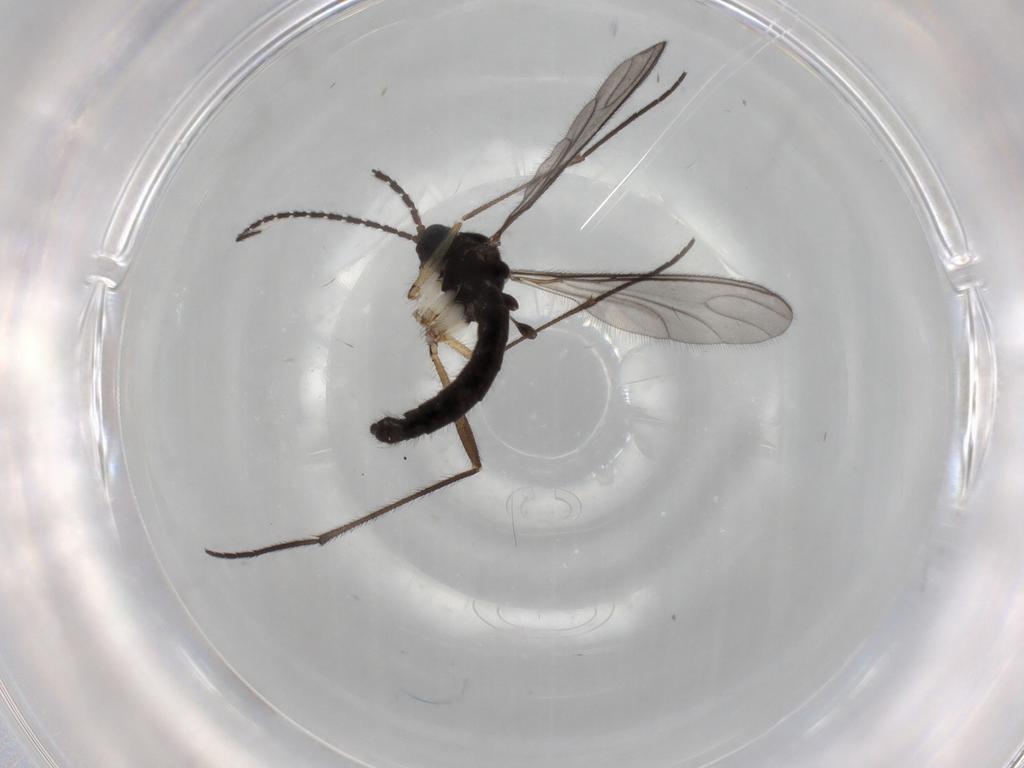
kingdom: Animalia
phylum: Arthropoda
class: Insecta
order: Diptera
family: Sciaridae
